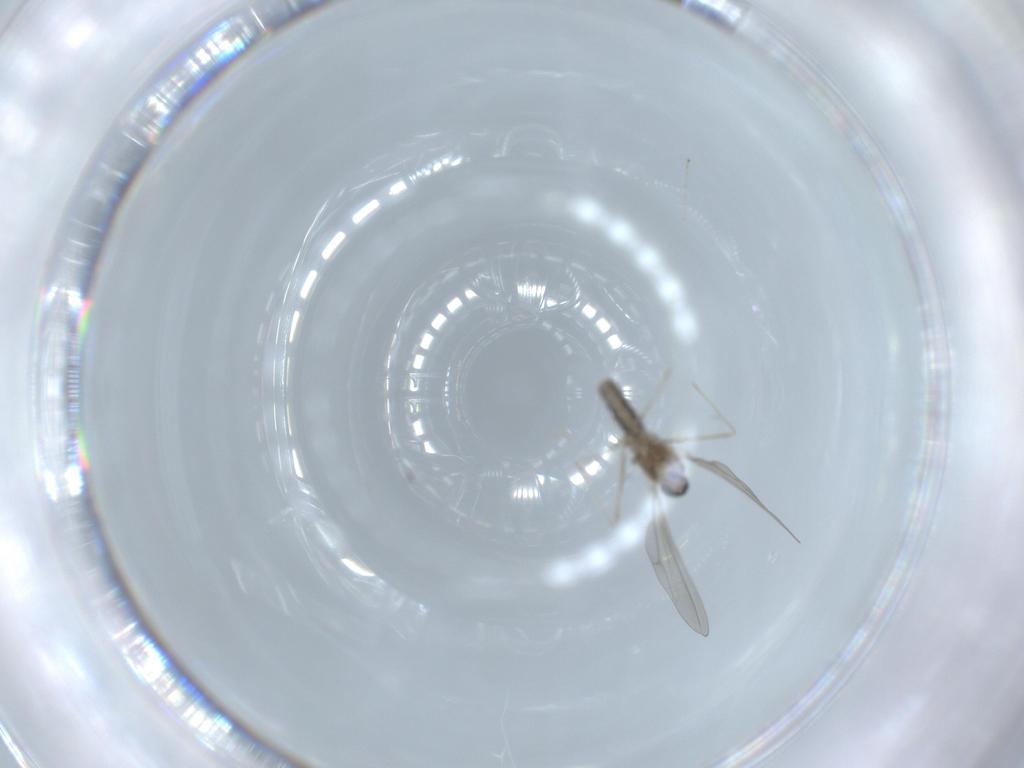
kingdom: Animalia
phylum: Arthropoda
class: Insecta
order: Diptera
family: Cecidomyiidae
